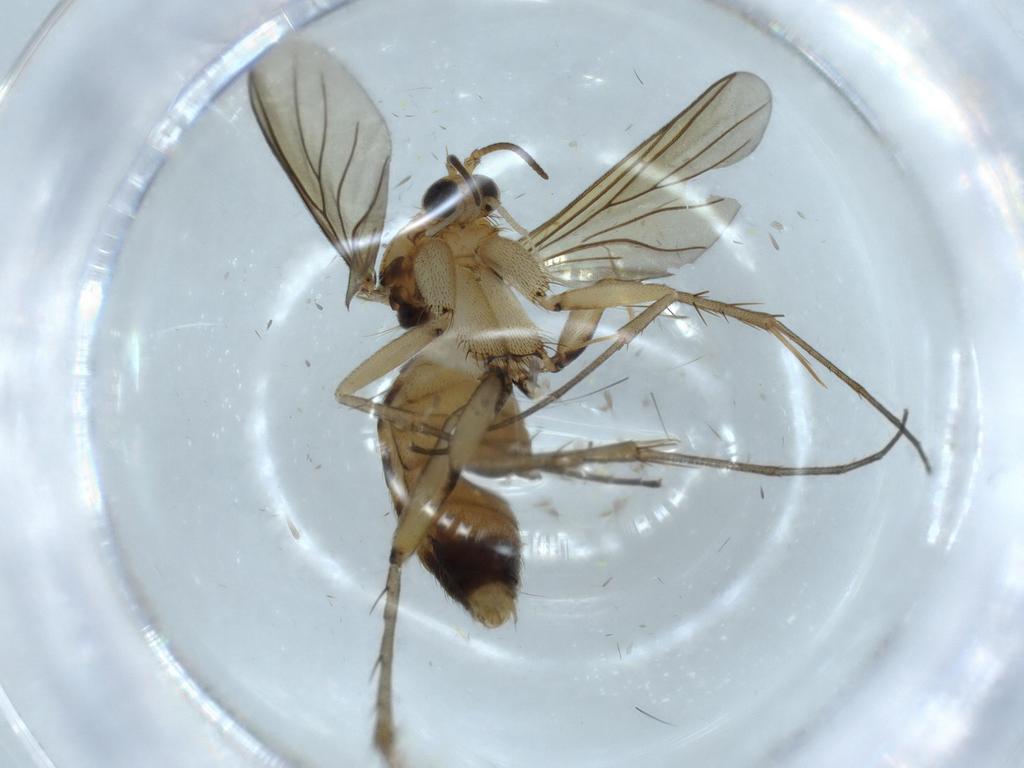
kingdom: Animalia
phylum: Arthropoda
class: Insecta
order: Diptera
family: Mycetophilidae
